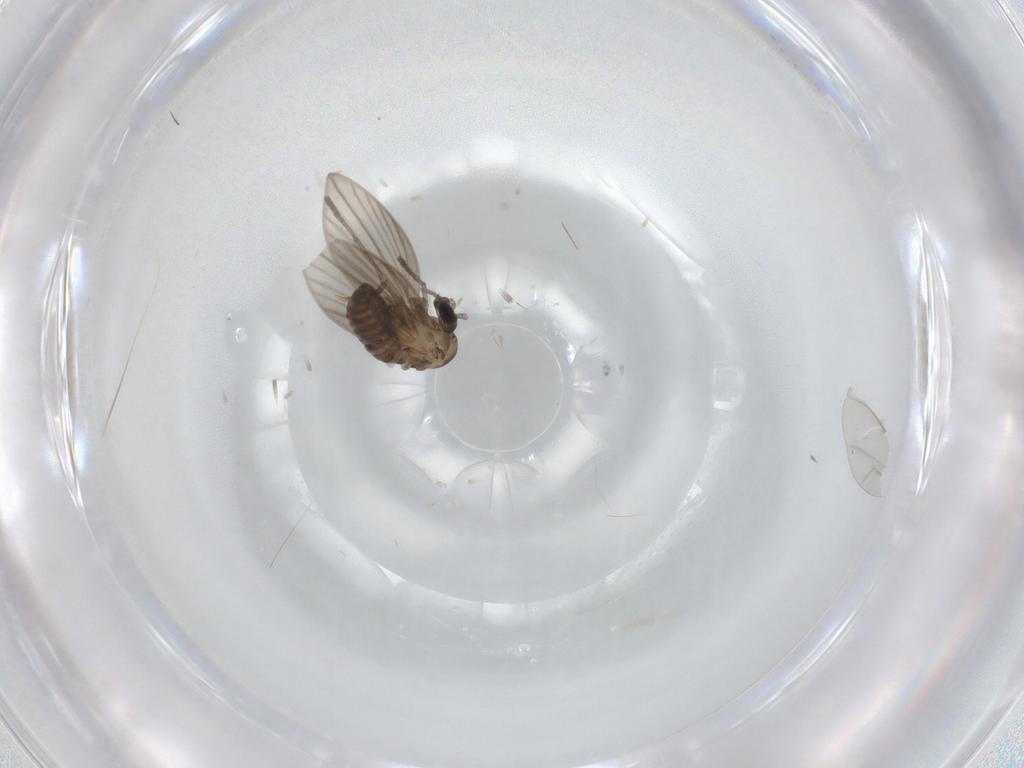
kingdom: Animalia
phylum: Arthropoda
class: Insecta
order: Diptera
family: Psychodidae
